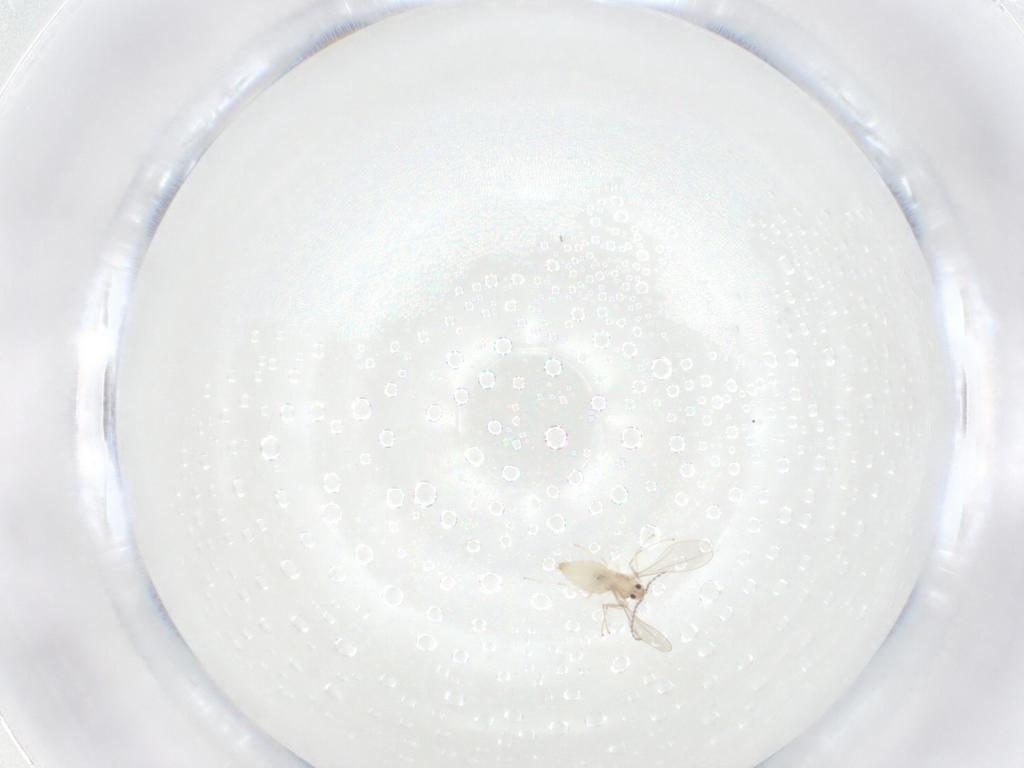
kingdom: Animalia
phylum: Arthropoda
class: Insecta
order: Diptera
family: Cecidomyiidae
